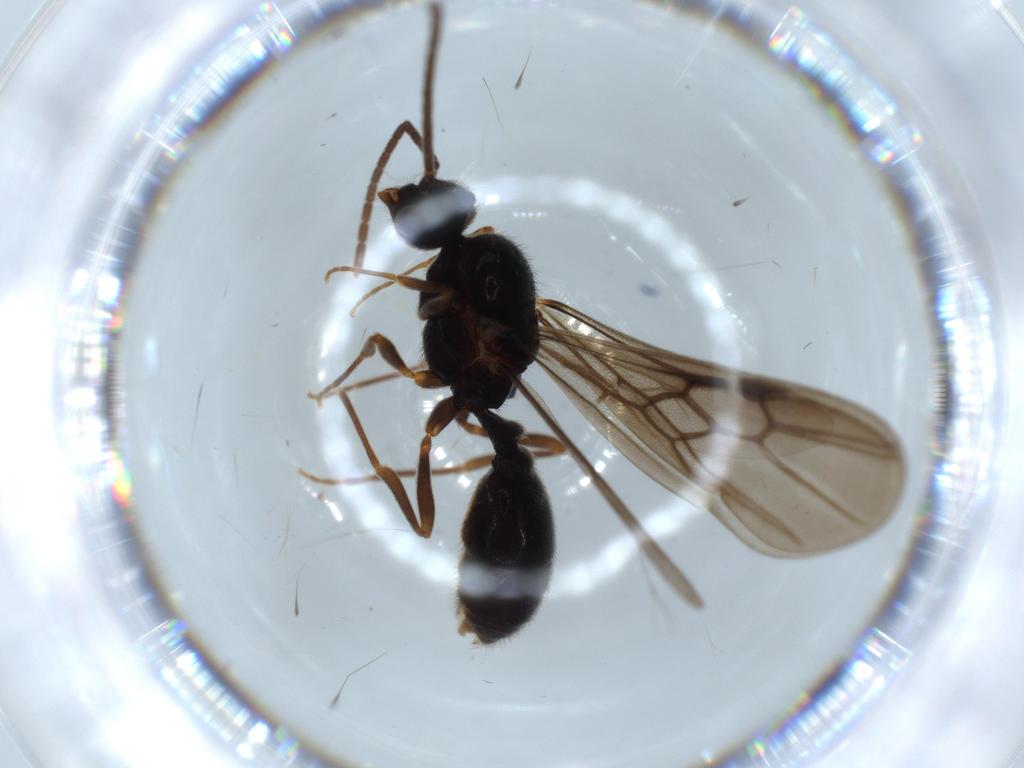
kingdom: Animalia
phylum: Arthropoda
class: Insecta
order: Hymenoptera
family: Formicidae
